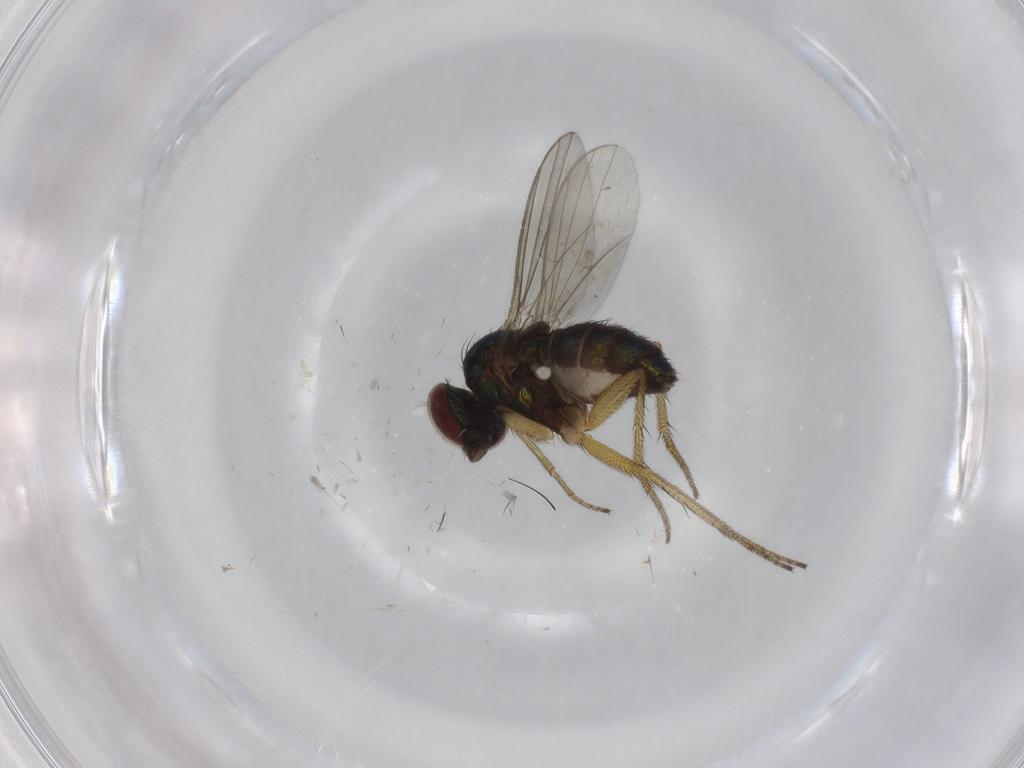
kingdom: Animalia
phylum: Arthropoda
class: Insecta
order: Diptera
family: Dolichopodidae
